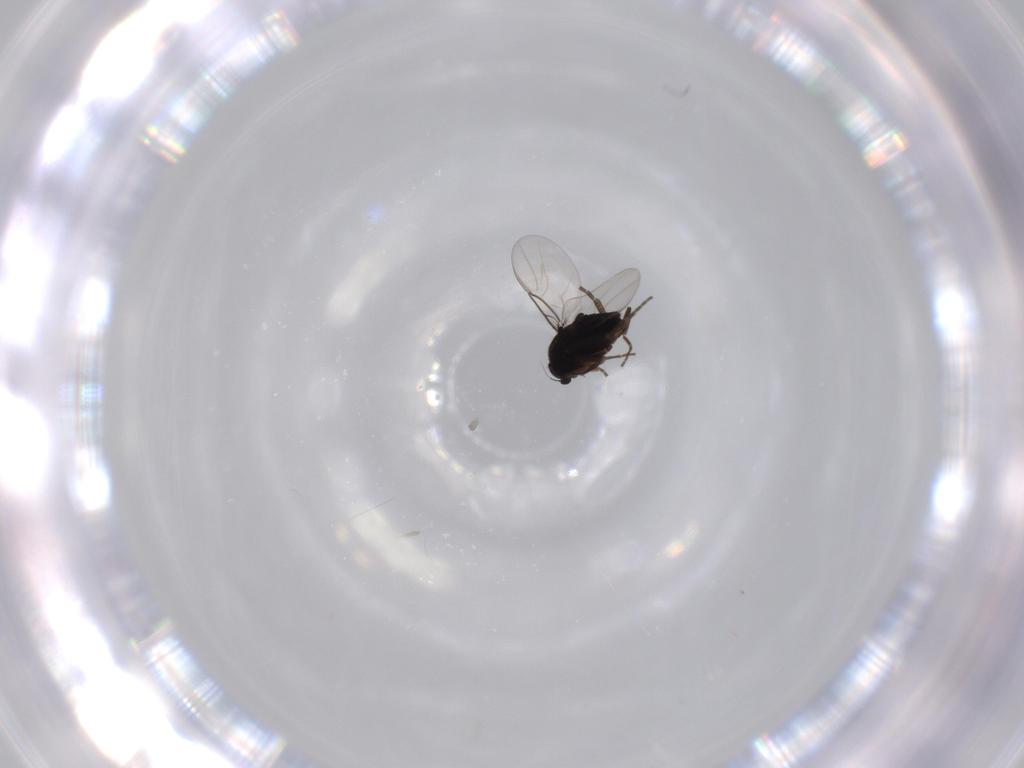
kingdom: Animalia
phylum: Arthropoda
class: Insecta
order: Diptera
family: Phoridae
